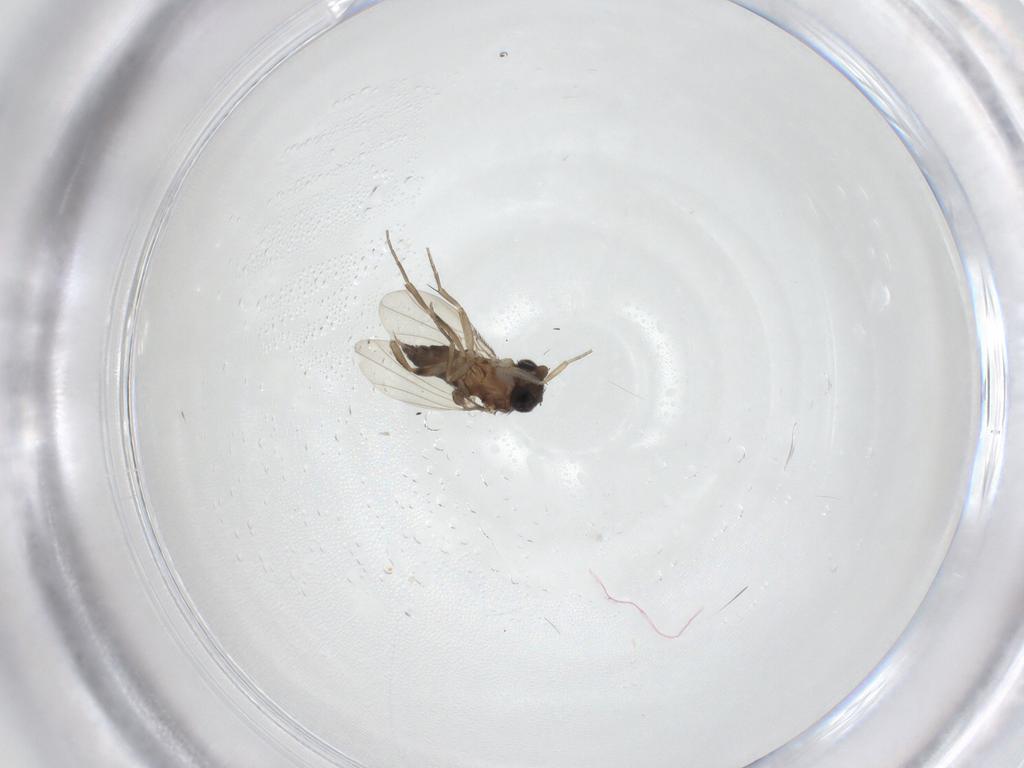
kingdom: Animalia
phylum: Arthropoda
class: Insecta
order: Diptera
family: Phoridae
